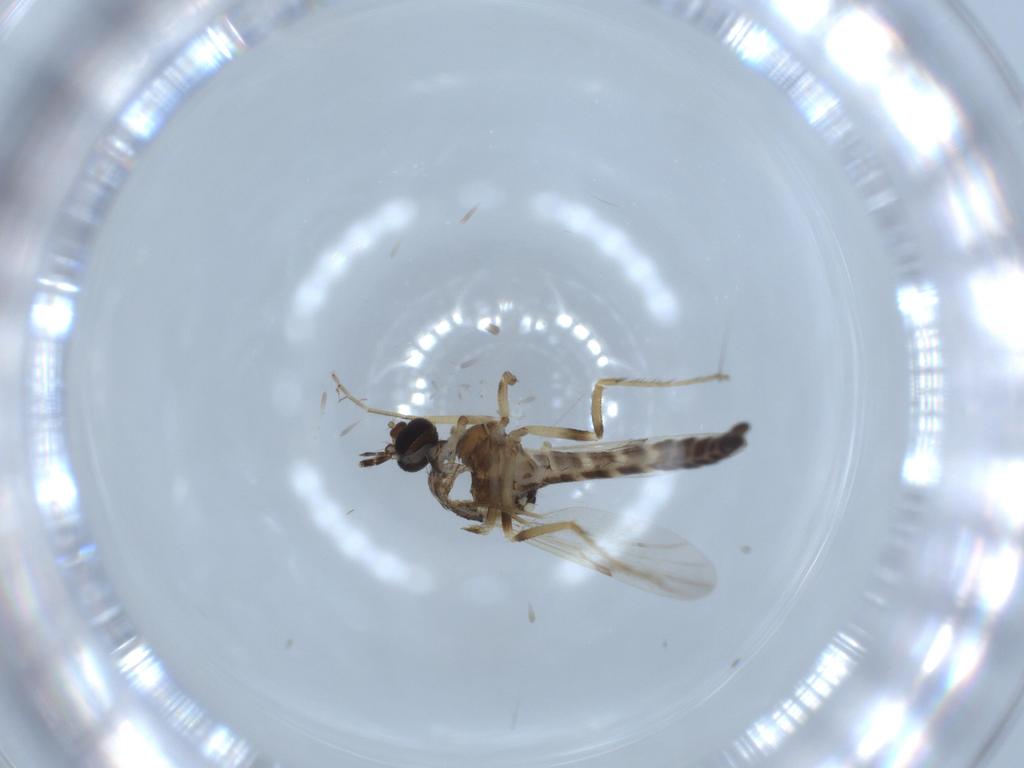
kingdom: Animalia
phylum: Arthropoda
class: Insecta
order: Diptera
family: Ceratopogonidae
